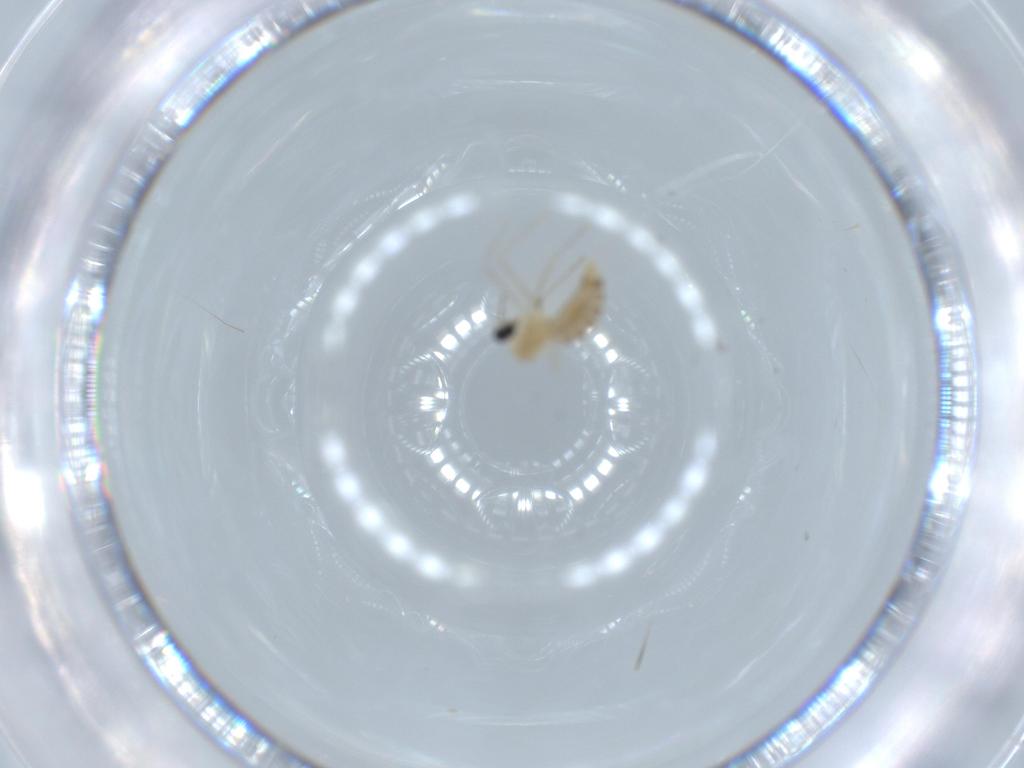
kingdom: Animalia
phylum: Arthropoda
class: Insecta
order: Diptera
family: Cecidomyiidae
